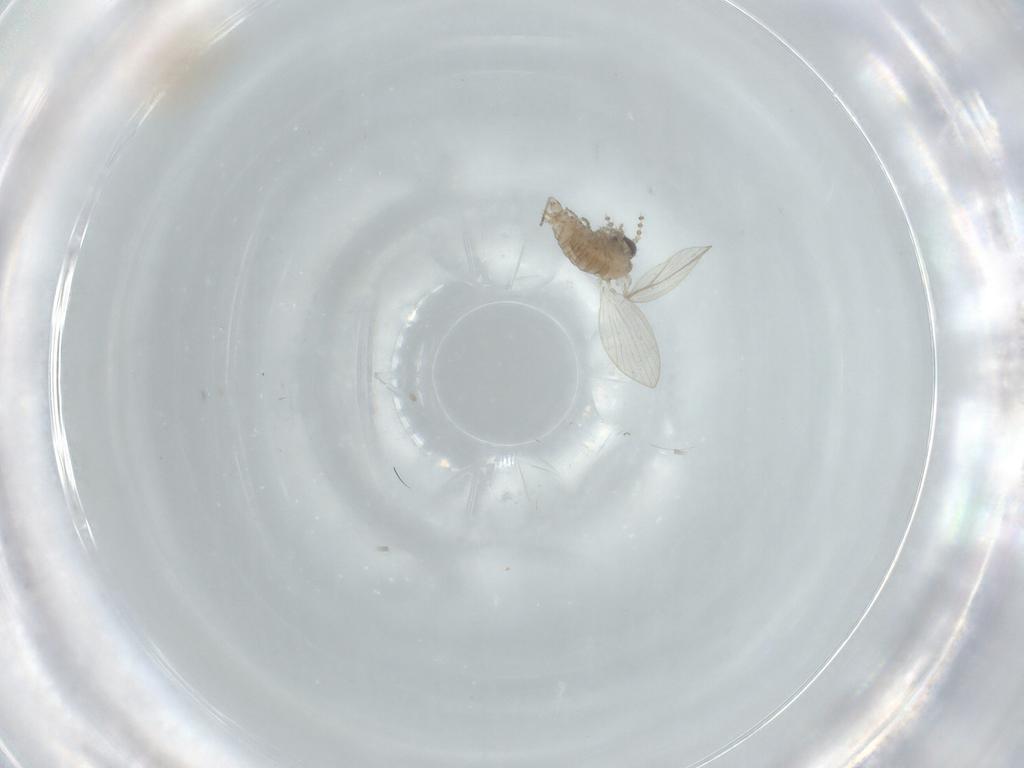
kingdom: Animalia
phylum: Arthropoda
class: Insecta
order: Diptera
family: Psychodidae
